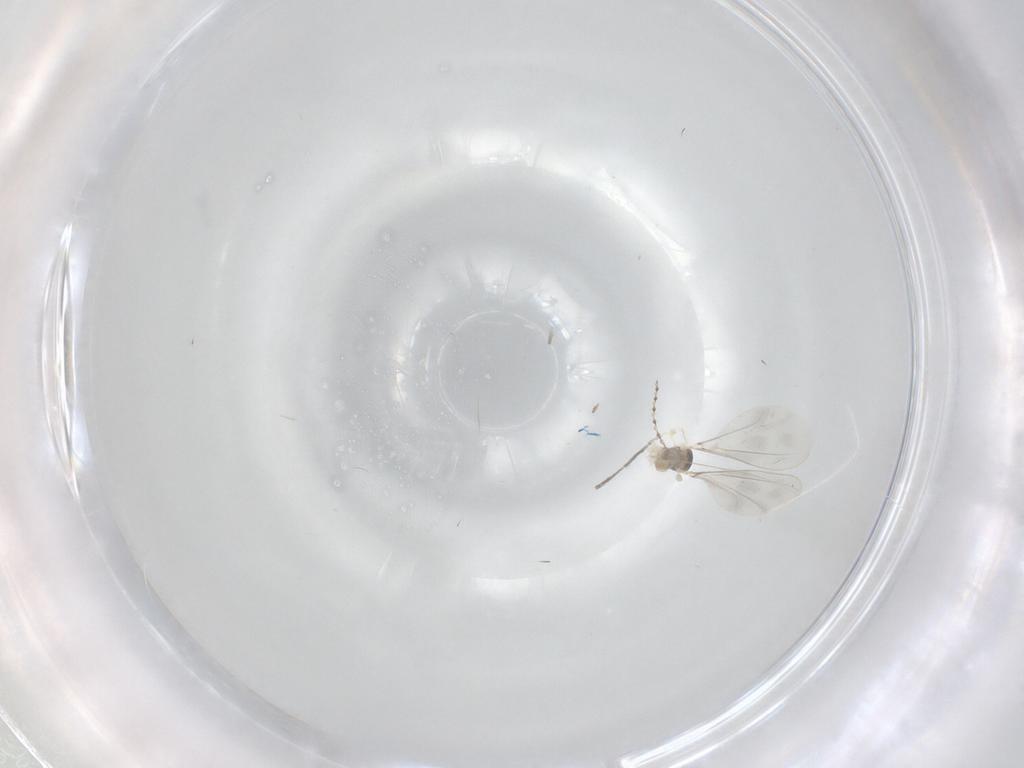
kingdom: Animalia
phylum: Arthropoda
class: Insecta
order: Diptera
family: Cecidomyiidae
